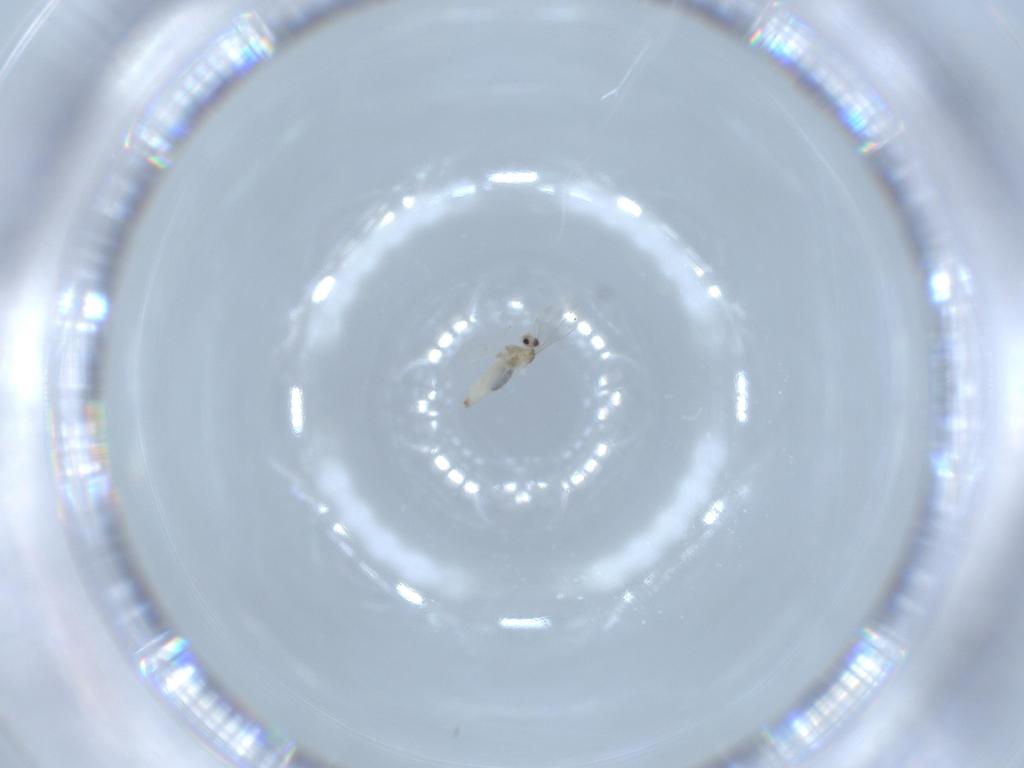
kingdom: Animalia
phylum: Arthropoda
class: Insecta
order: Diptera
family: Cecidomyiidae
